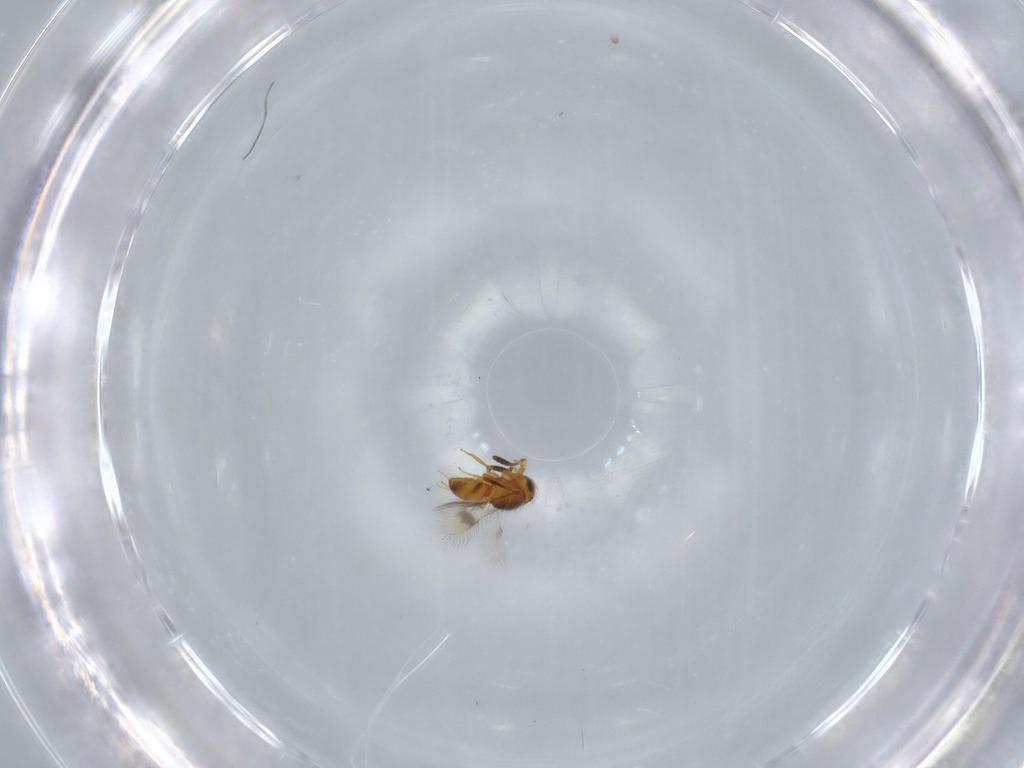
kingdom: Animalia
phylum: Arthropoda
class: Insecta
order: Hymenoptera
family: Scelionidae
